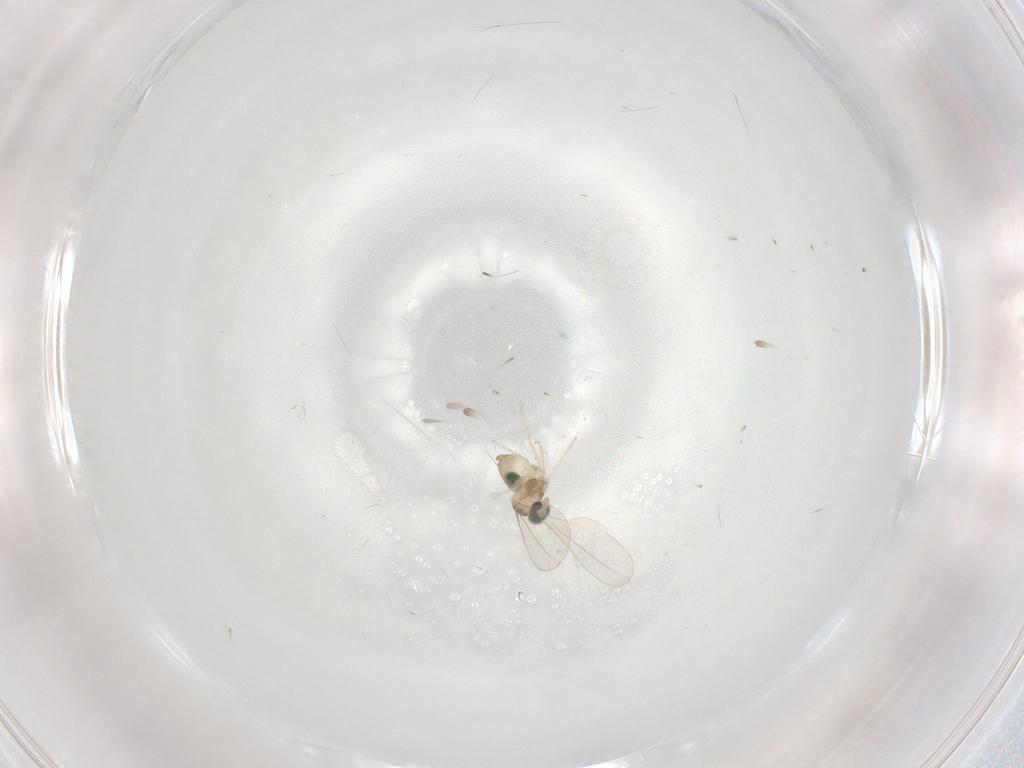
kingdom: Animalia
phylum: Arthropoda
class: Insecta
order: Diptera
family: Cecidomyiidae
